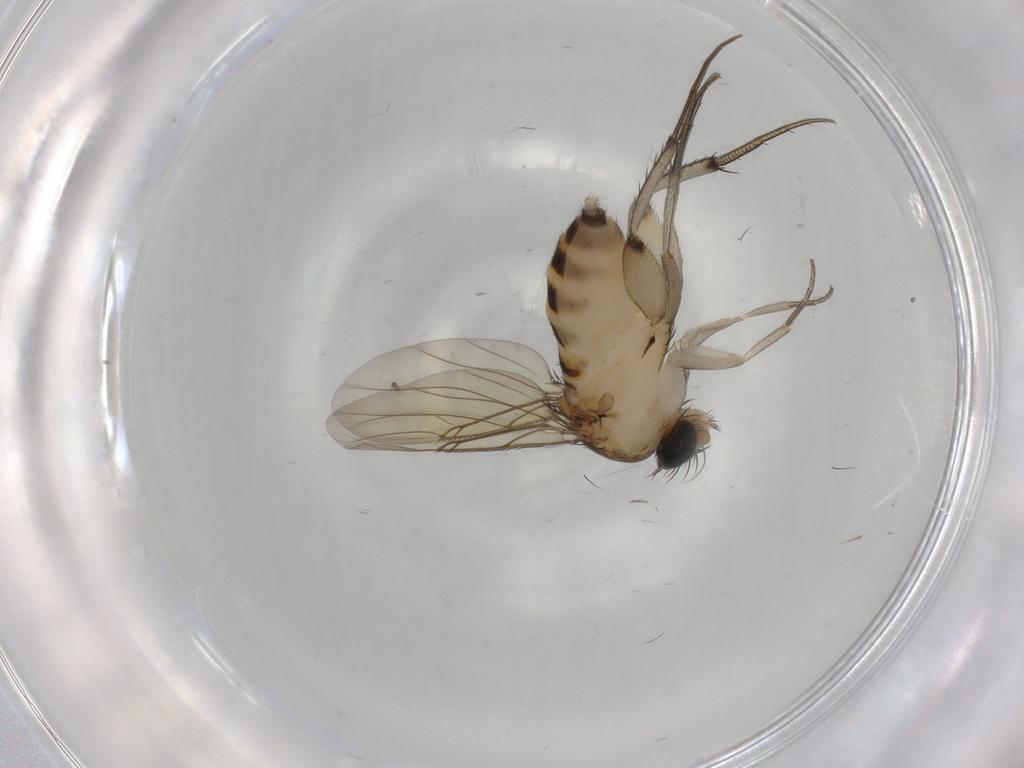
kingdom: Animalia
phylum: Arthropoda
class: Insecta
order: Diptera
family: Phoridae
